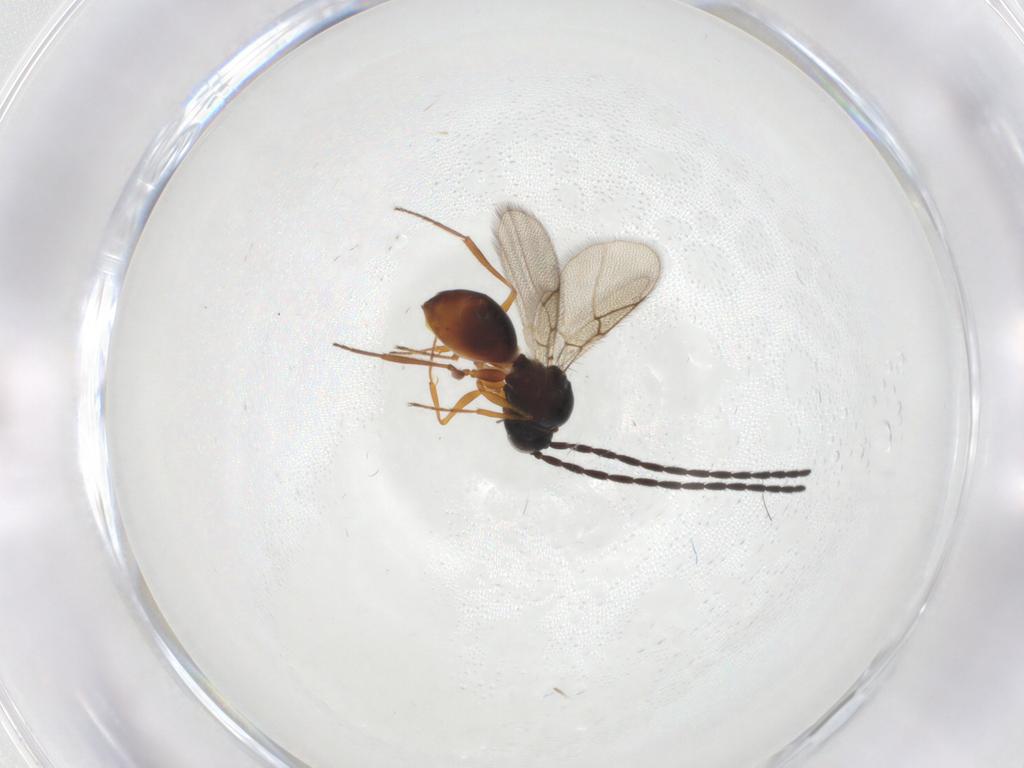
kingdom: Animalia
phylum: Arthropoda
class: Insecta
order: Hymenoptera
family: Figitidae
